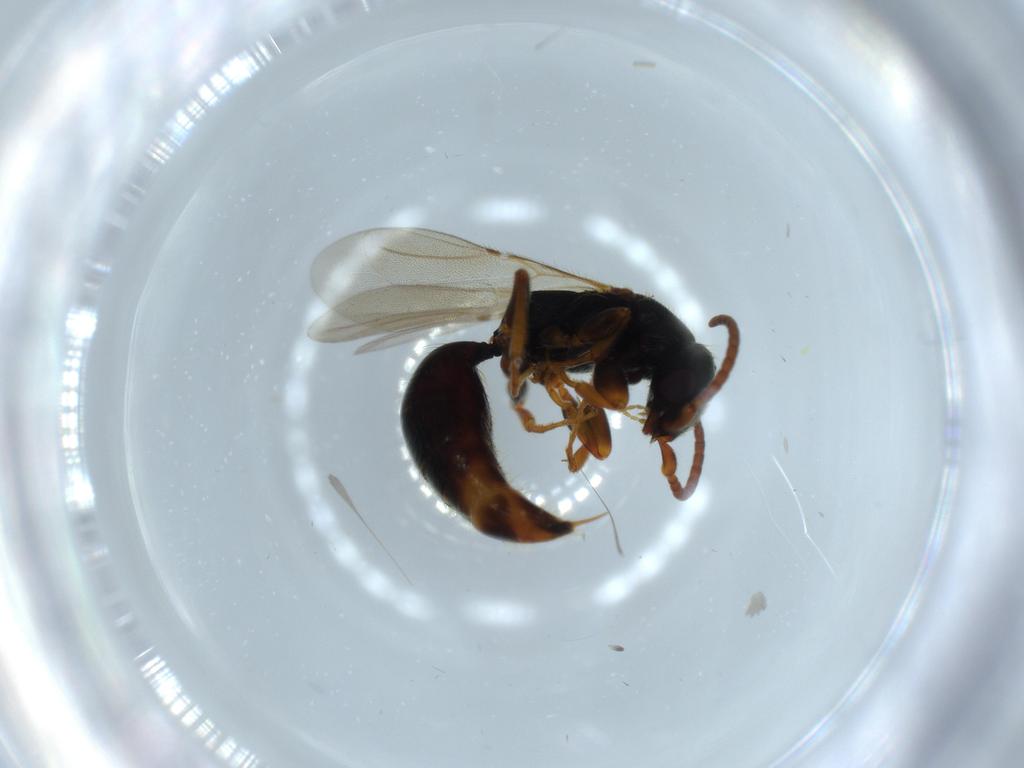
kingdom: Animalia
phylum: Arthropoda
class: Insecta
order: Hymenoptera
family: Bethylidae
